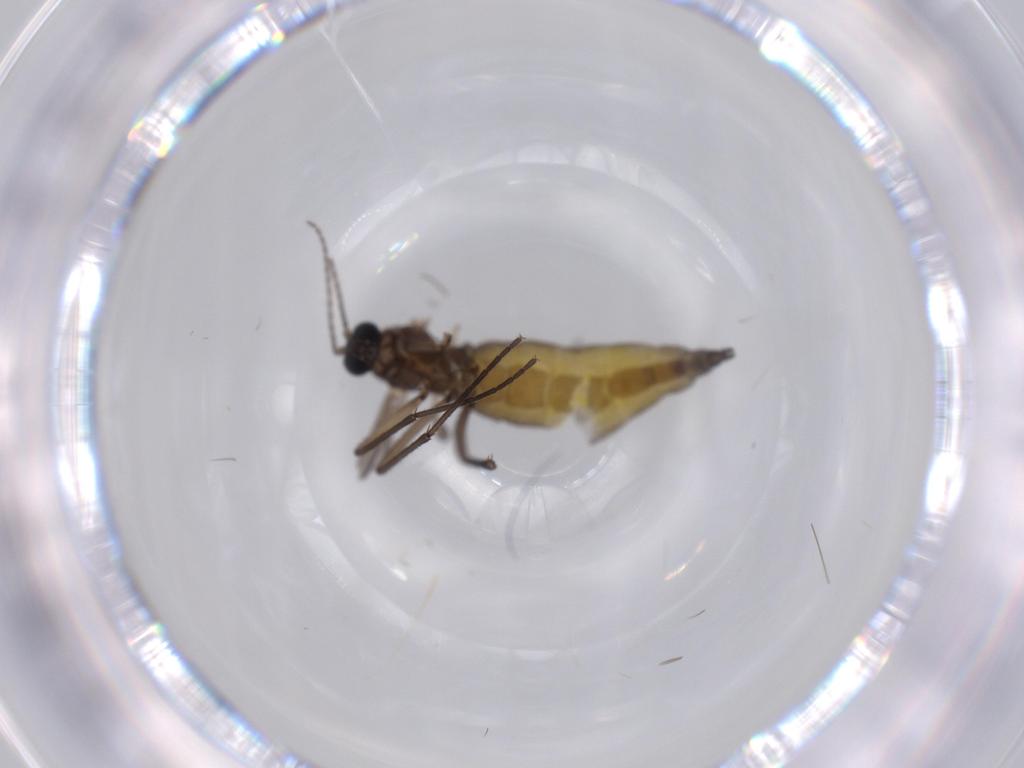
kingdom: Animalia
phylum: Arthropoda
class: Insecta
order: Diptera
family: Sciaridae
